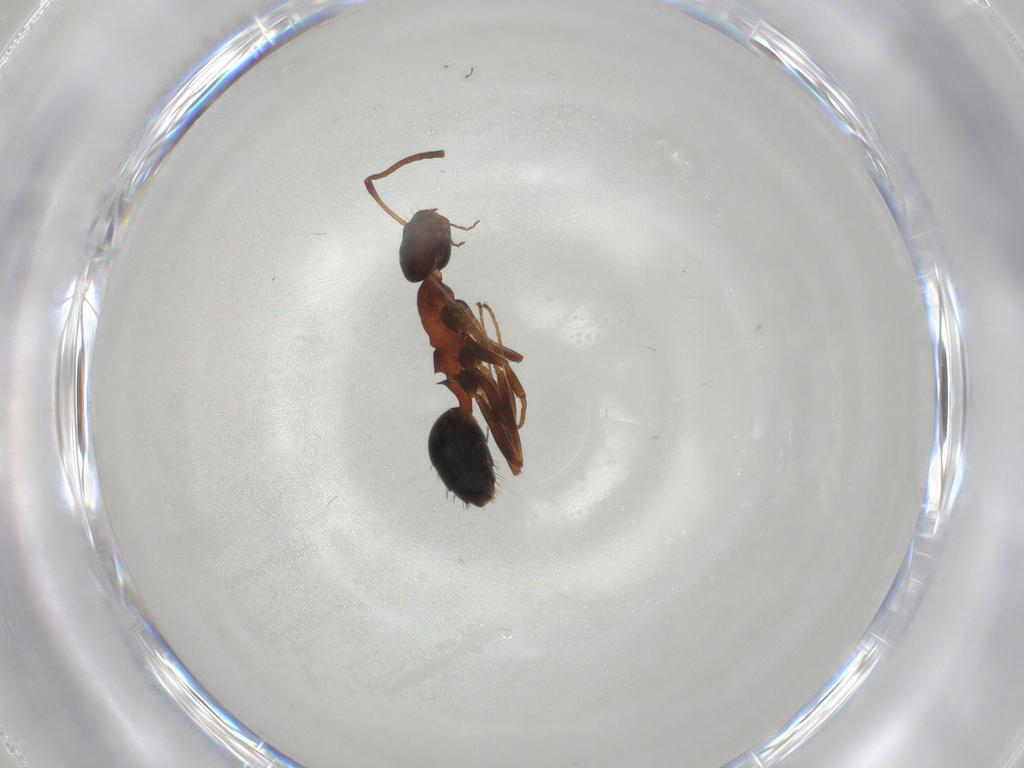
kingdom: Animalia
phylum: Arthropoda
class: Insecta
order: Hymenoptera
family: Formicidae
